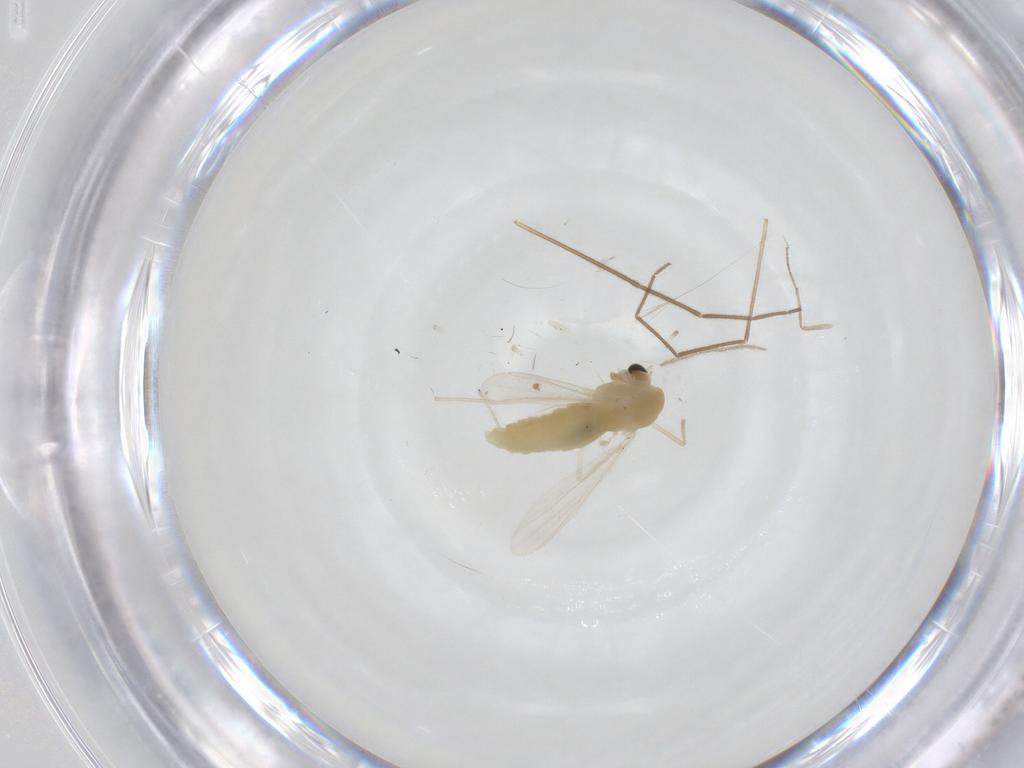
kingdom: Animalia
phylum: Arthropoda
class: Insecta
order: Diptera
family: Chironomidae
